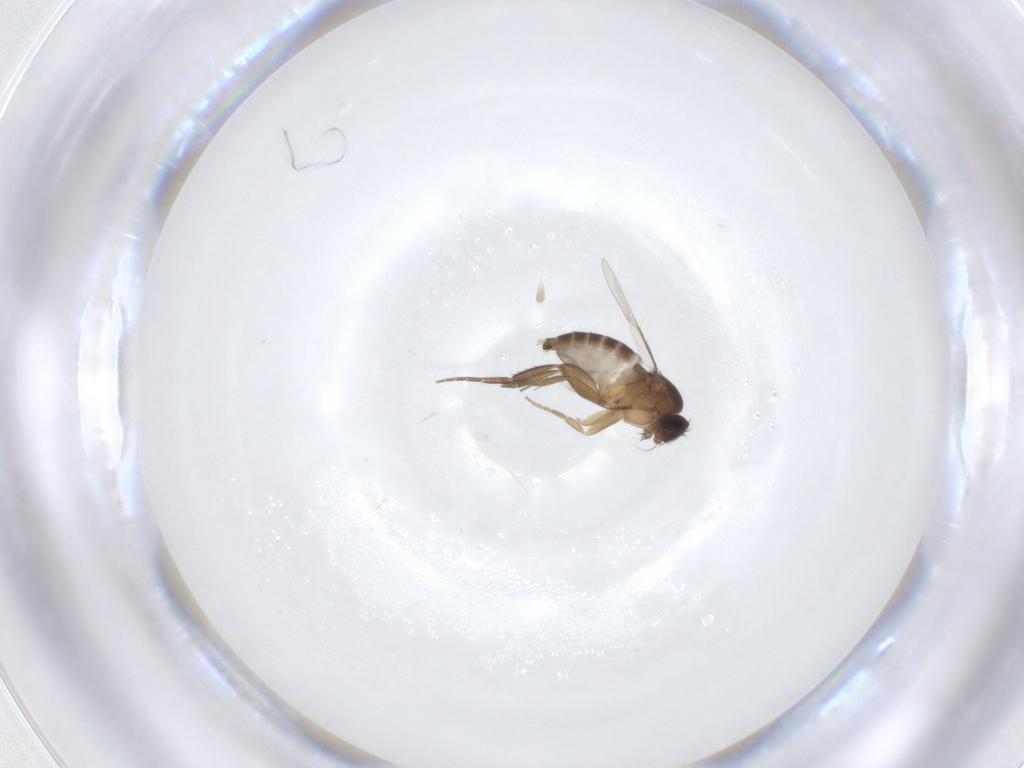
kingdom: Animalia
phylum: Arthropoda
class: Insecta
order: Diptera
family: Phoridae
